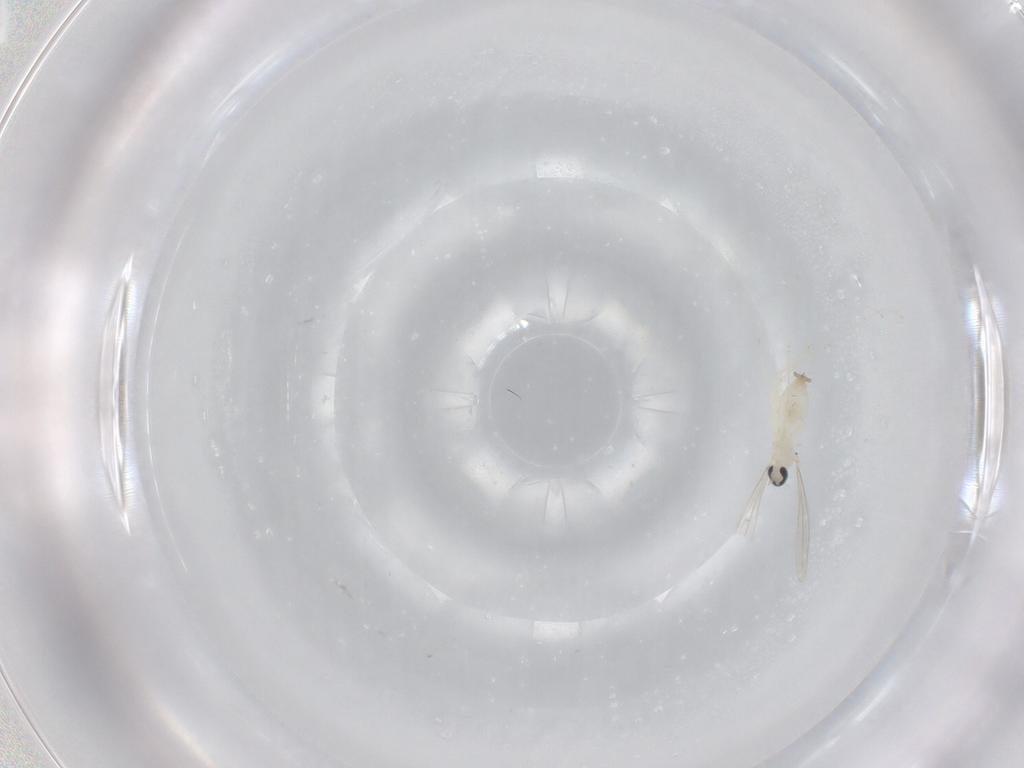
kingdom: Animalia
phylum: Arthropoda
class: Insecta
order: Diptera
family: Cecidomyiidae
